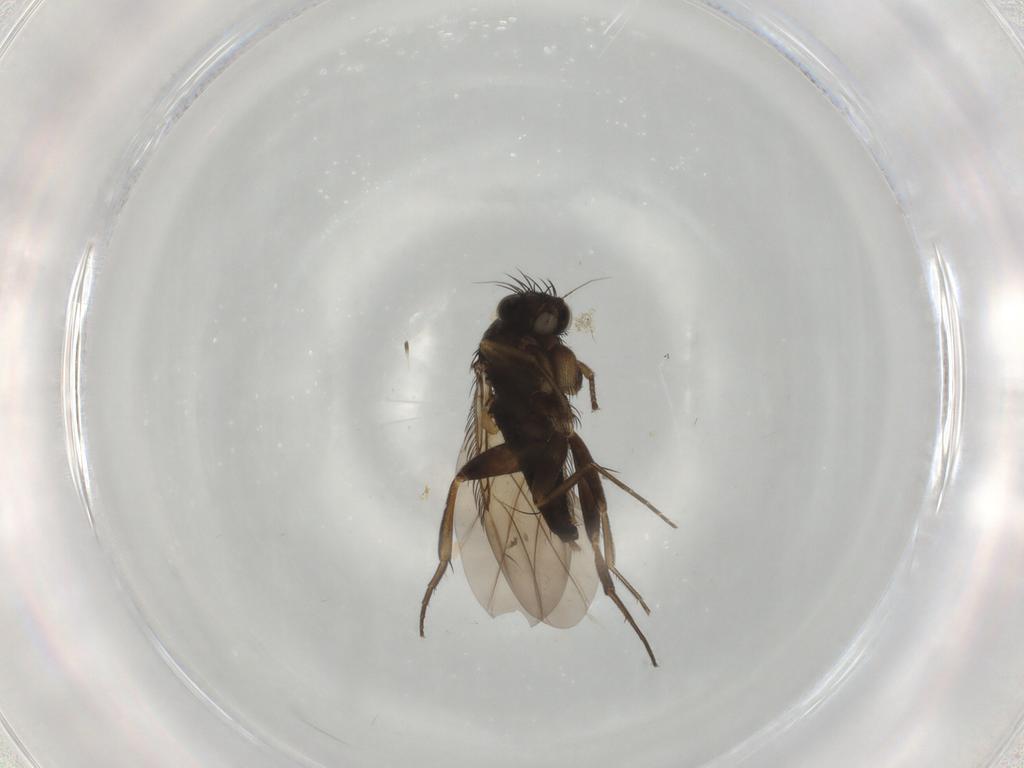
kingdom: Animalia
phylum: Arthropoda
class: Insecta
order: Diptera
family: Phoridae
